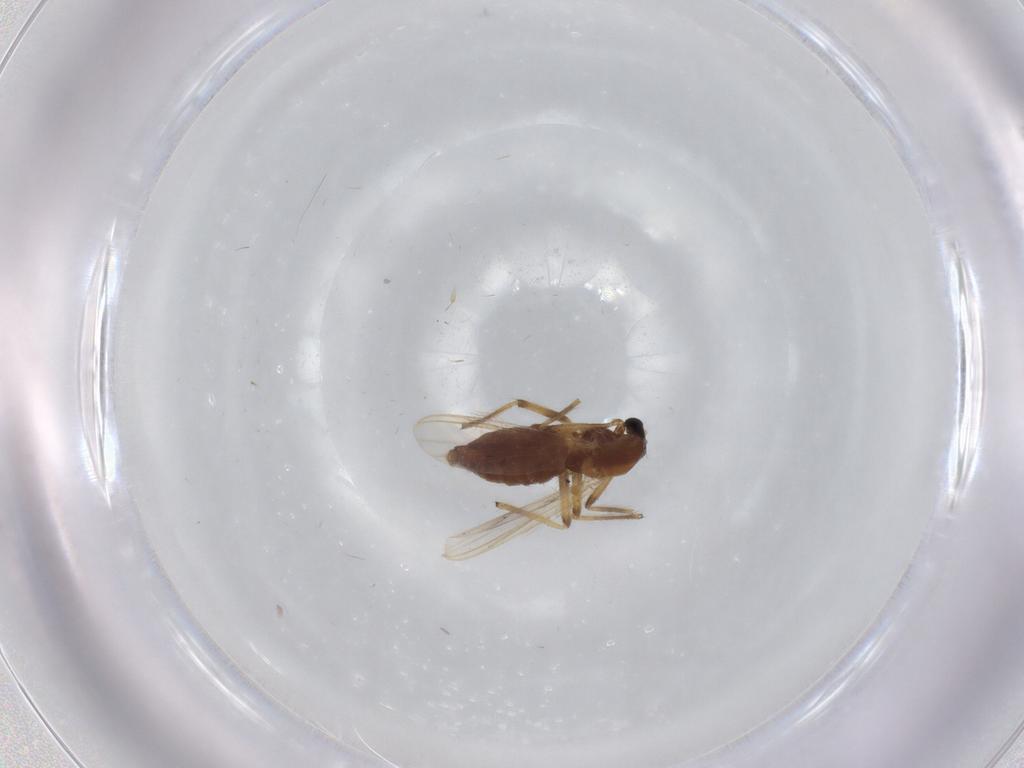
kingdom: Animalia
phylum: Arthropoda
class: Insecta
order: Diptera
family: Chironomidae
